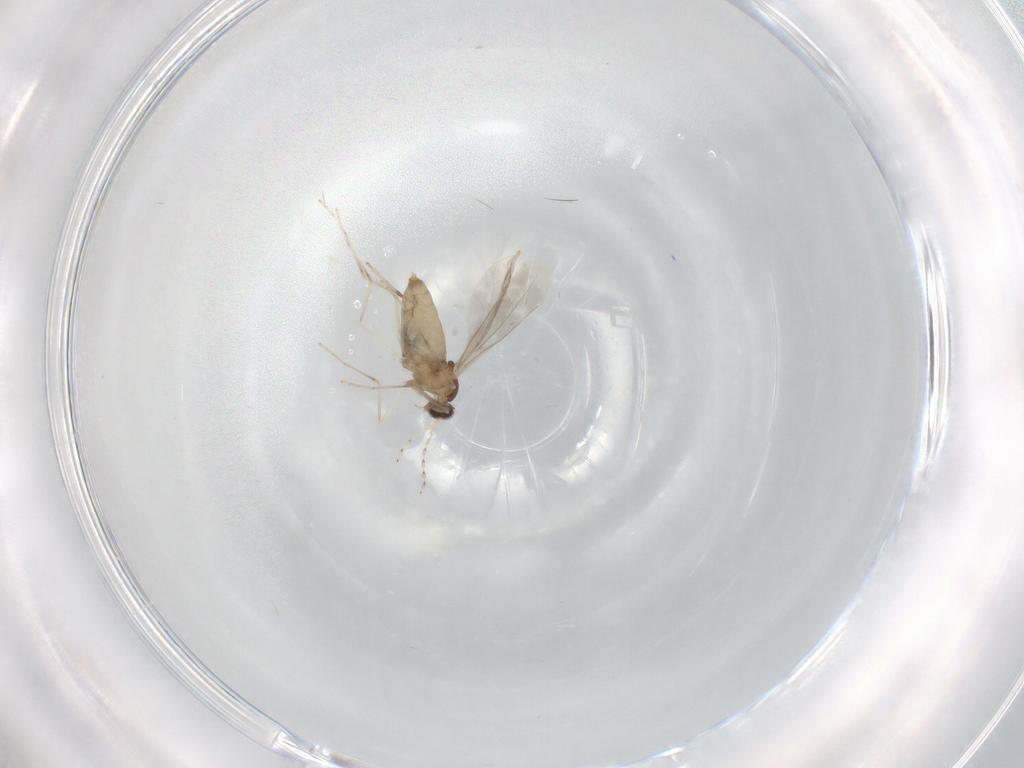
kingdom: Animalia
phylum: Arthropoda
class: Insecta
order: Diptera
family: Cecidomyiidae
